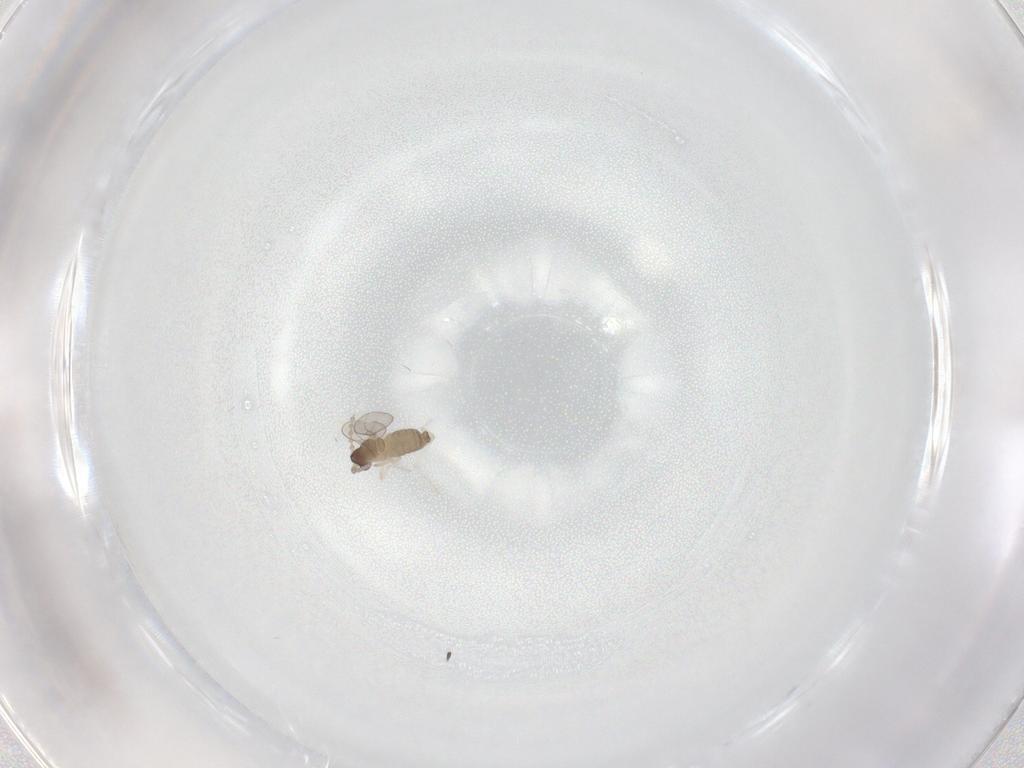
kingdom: Animalia
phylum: Arthropoda
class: Insecta
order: Diptera
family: Cecidomyiidae
